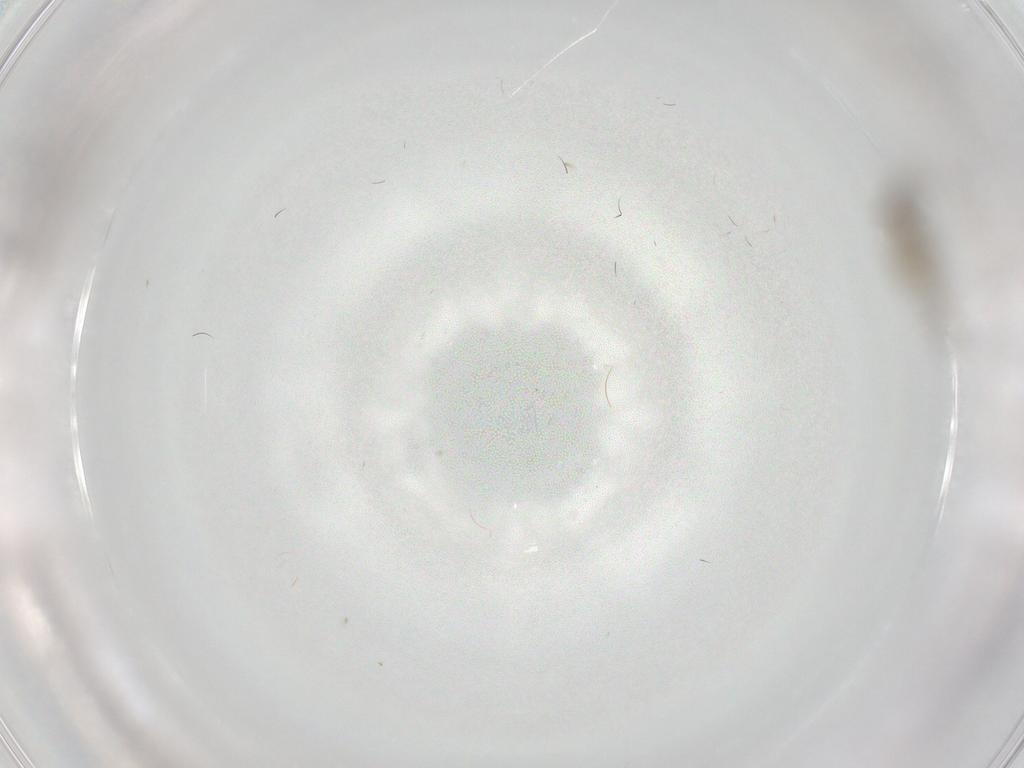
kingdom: Animalia
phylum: Arthropoda
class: Insecta
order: Diptera
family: Cecidomyiidae
